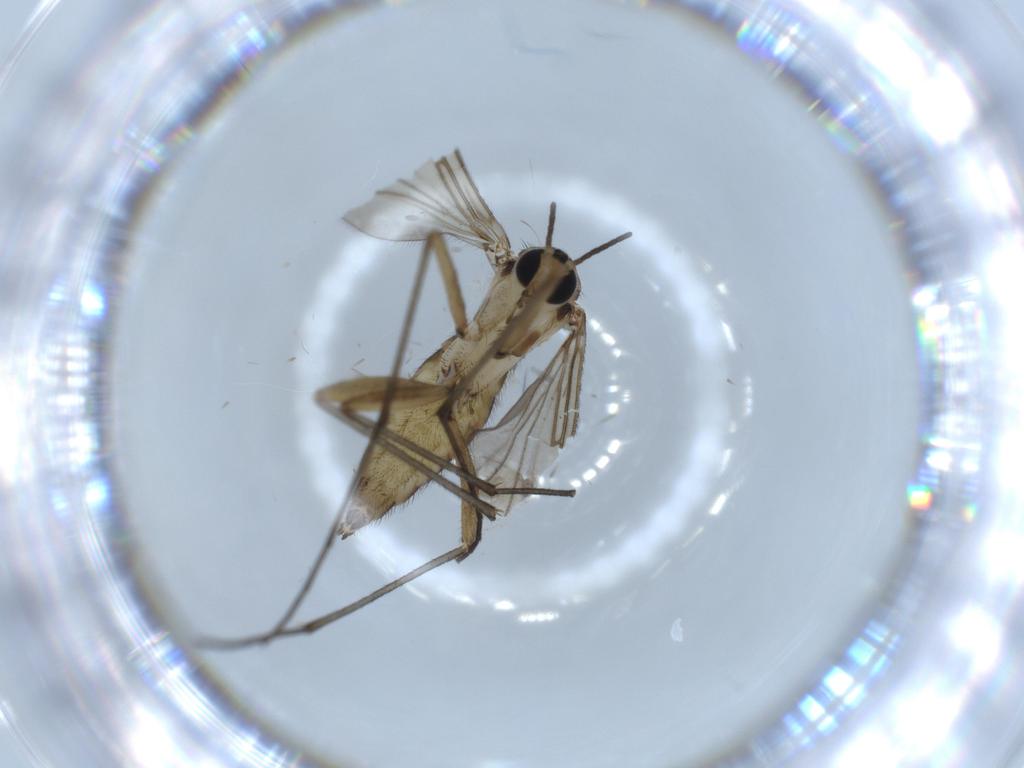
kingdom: Animalia
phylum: Arthropoda
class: Insecta
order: Diptera
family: Sciaridae
